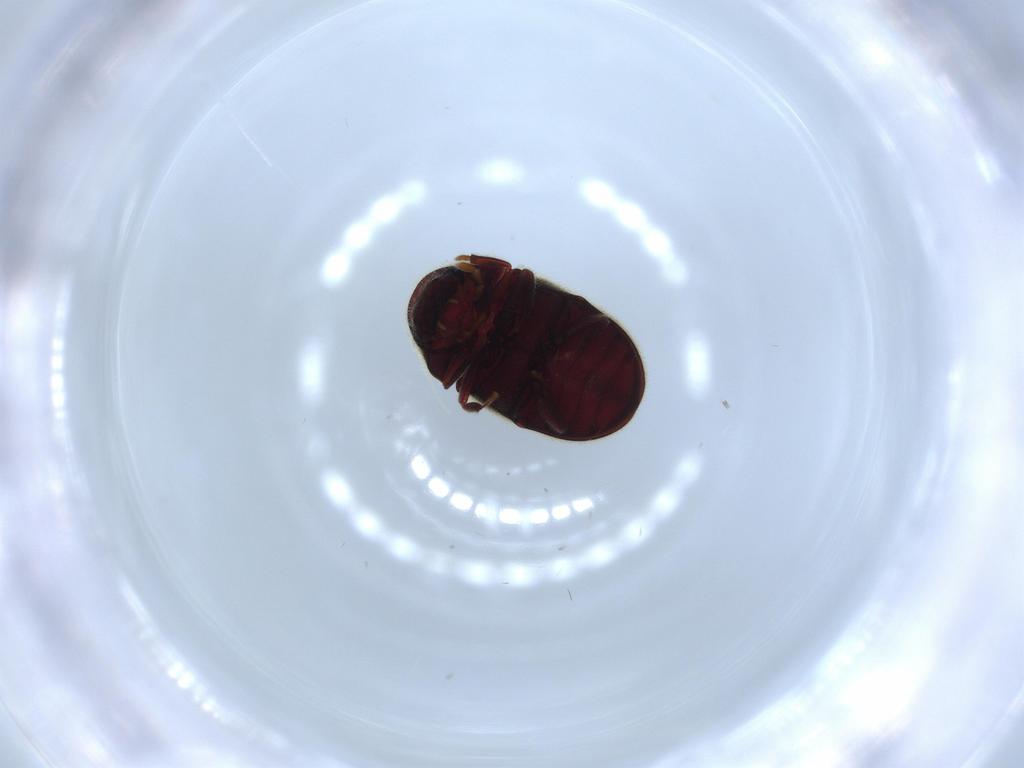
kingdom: Animalia
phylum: Arthropoda
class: Insecta
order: Coleoptera
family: Ptinidae
